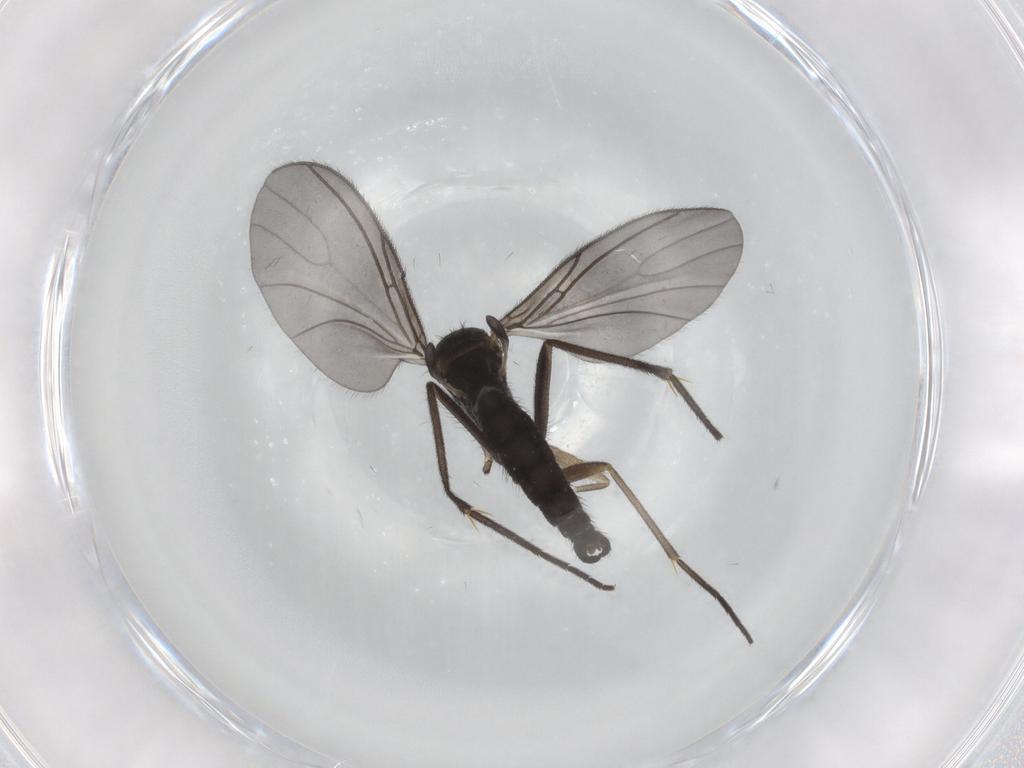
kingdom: Animalia
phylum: Arthropoda
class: Insecta
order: Diptera
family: Sciaridae
